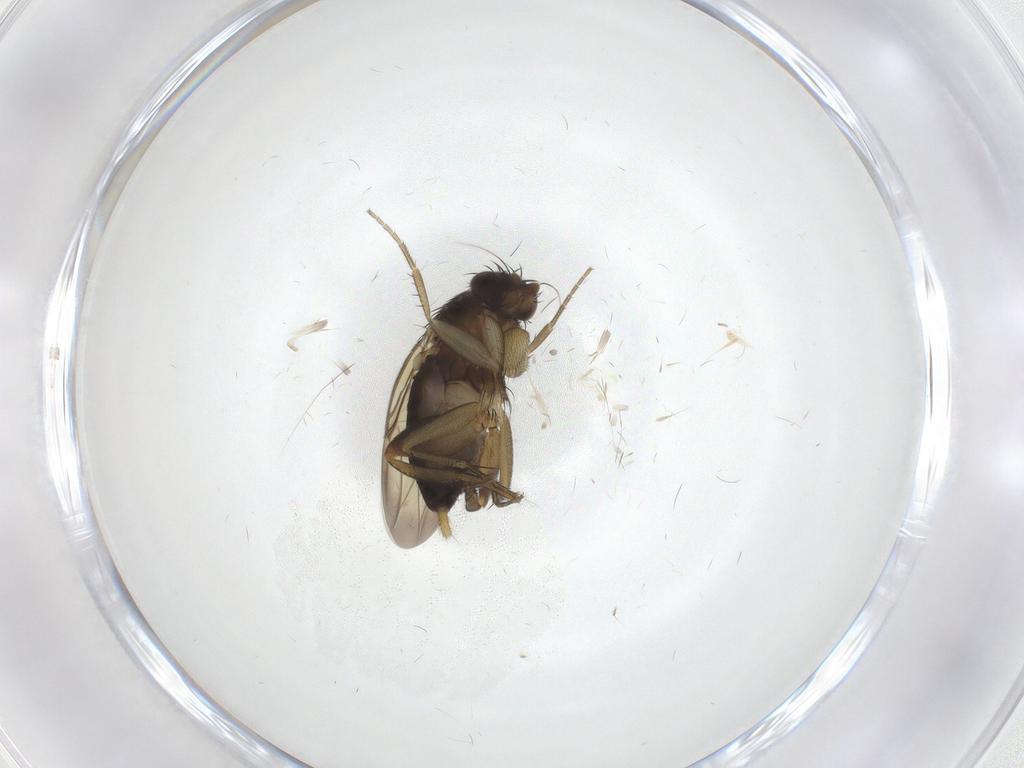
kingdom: Animalia
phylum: Arthropoda
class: Insecta
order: Diptera
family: Phoridae
